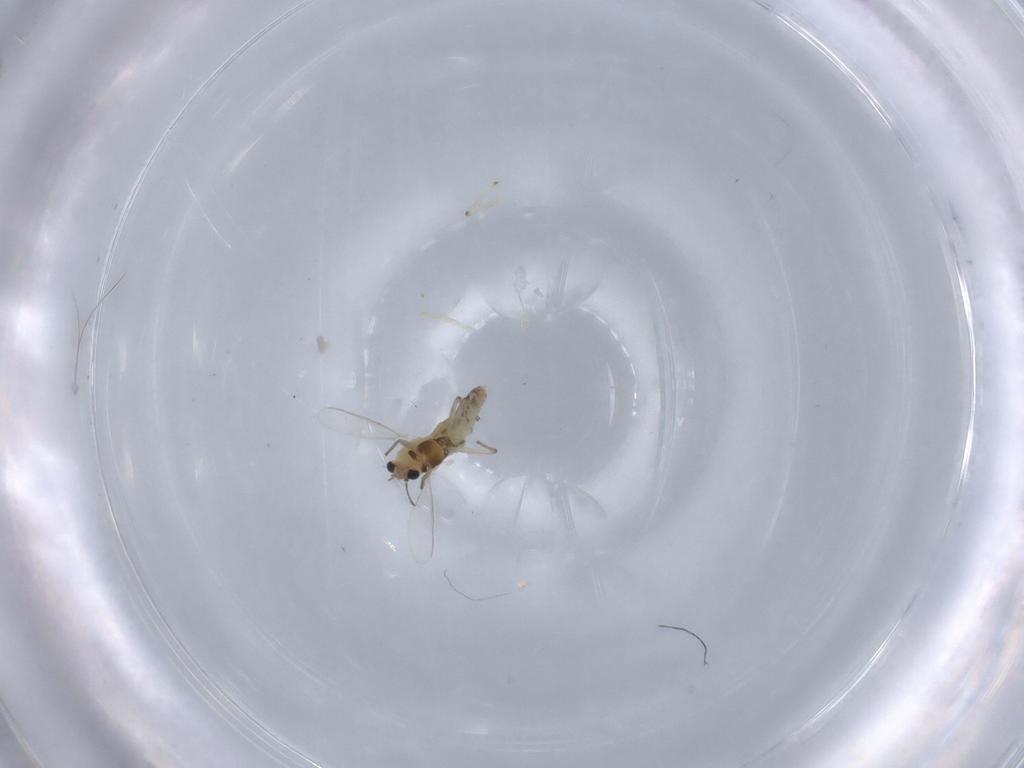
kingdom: Animalia
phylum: Arthropoda
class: Insecta
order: Diptera
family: Chironomidae
